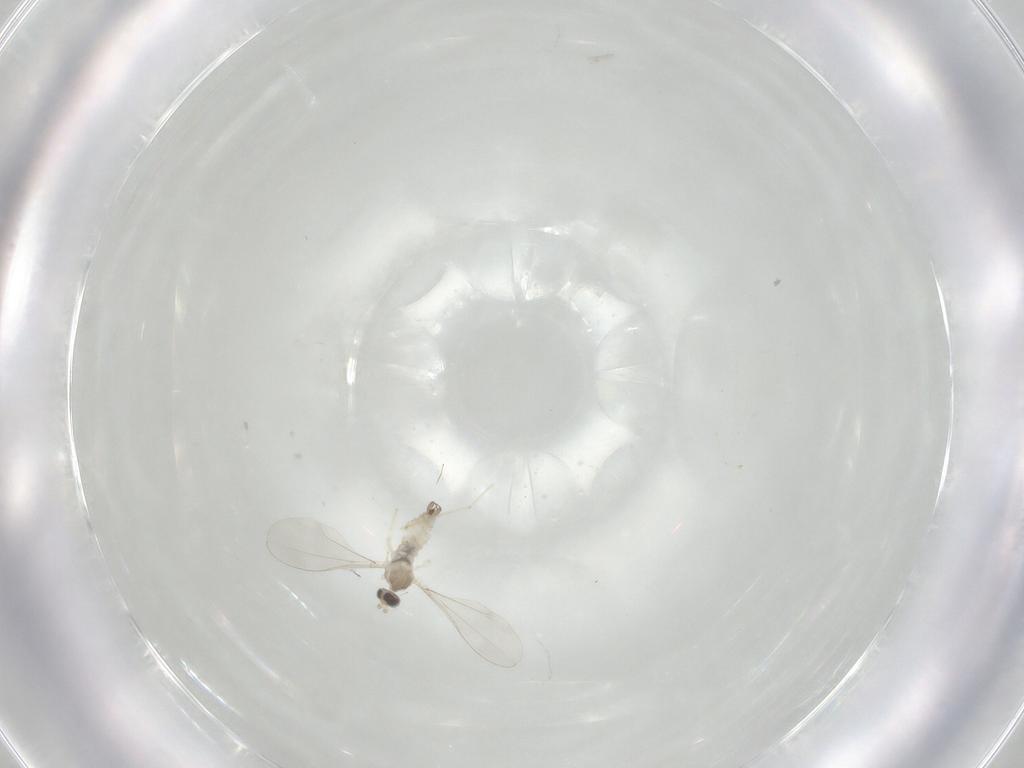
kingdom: Animalia
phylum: Arthropoda
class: Insecta
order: Diptera
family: Cecidomyiidae
